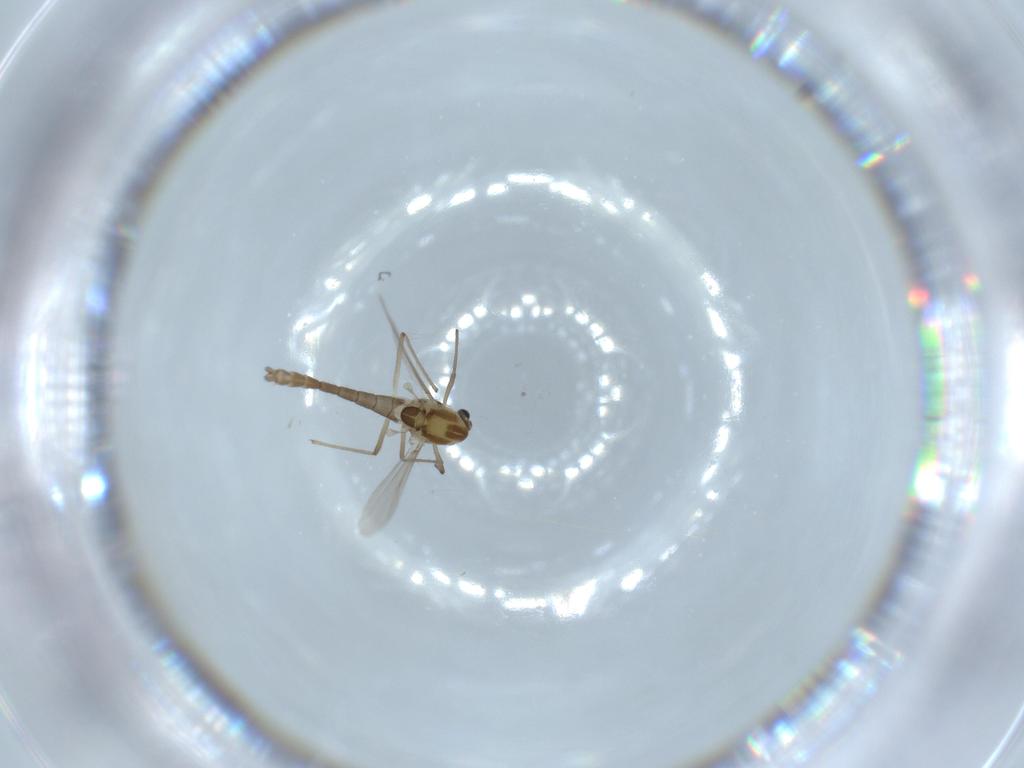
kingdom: Animalia
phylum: Arthropoda
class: Insecta
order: Diptera
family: Chironomidae
